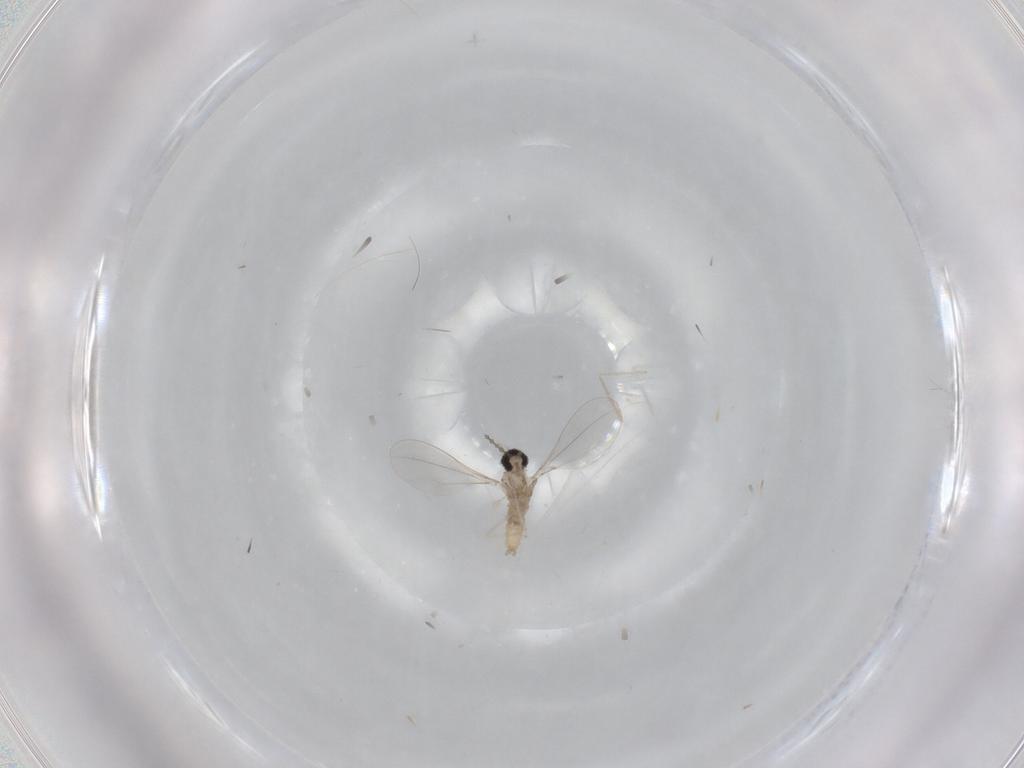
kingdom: Animalia
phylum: Arthropoda
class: Insecta
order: Diptera
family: Cecidomyiidae
